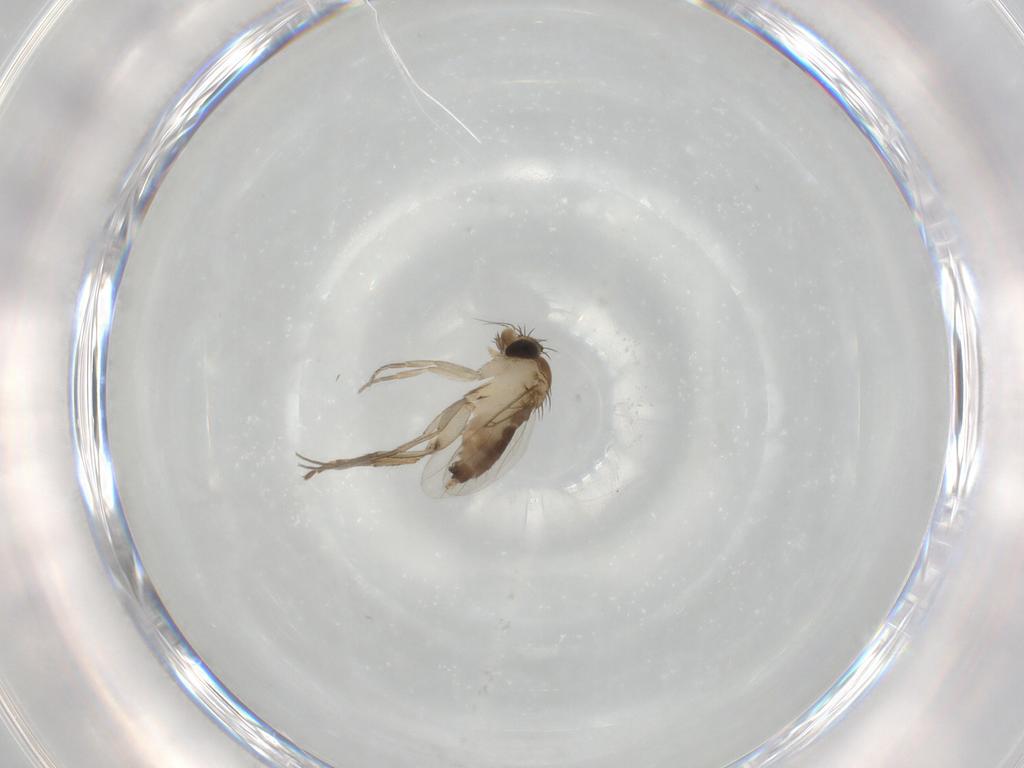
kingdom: Animalia
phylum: Arthropoda
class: Insecta
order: Diptera
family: Phoridae
